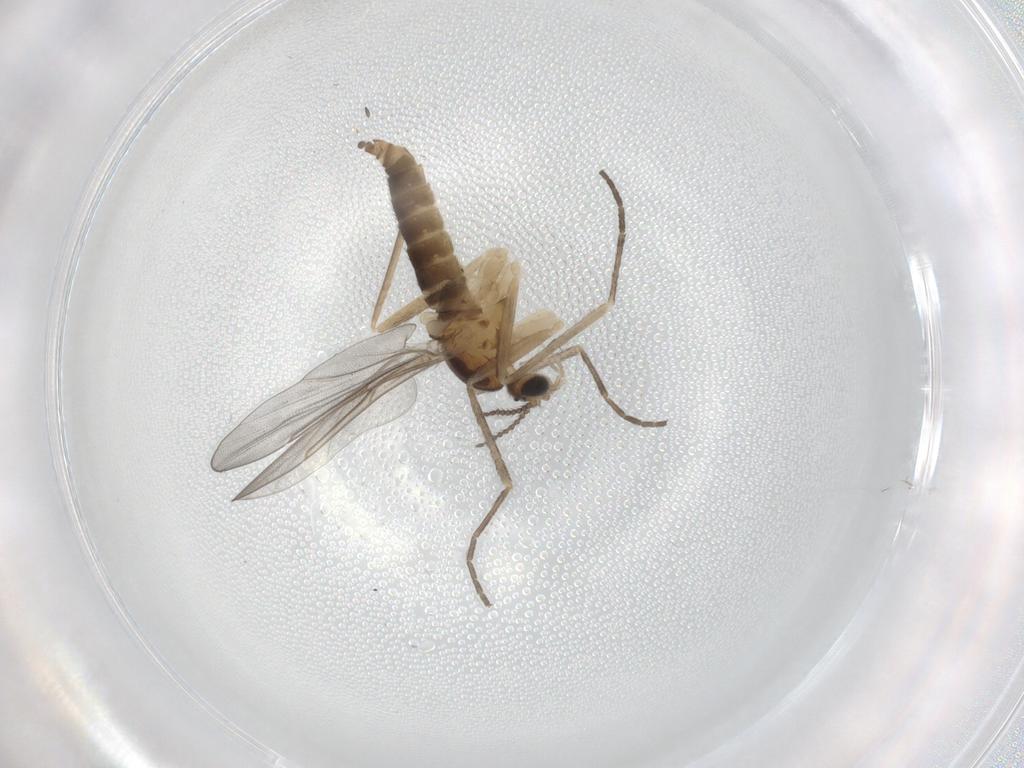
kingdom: Animalia
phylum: Arthropoda
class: Insecta
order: Diptera
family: Cecidomyiidae
